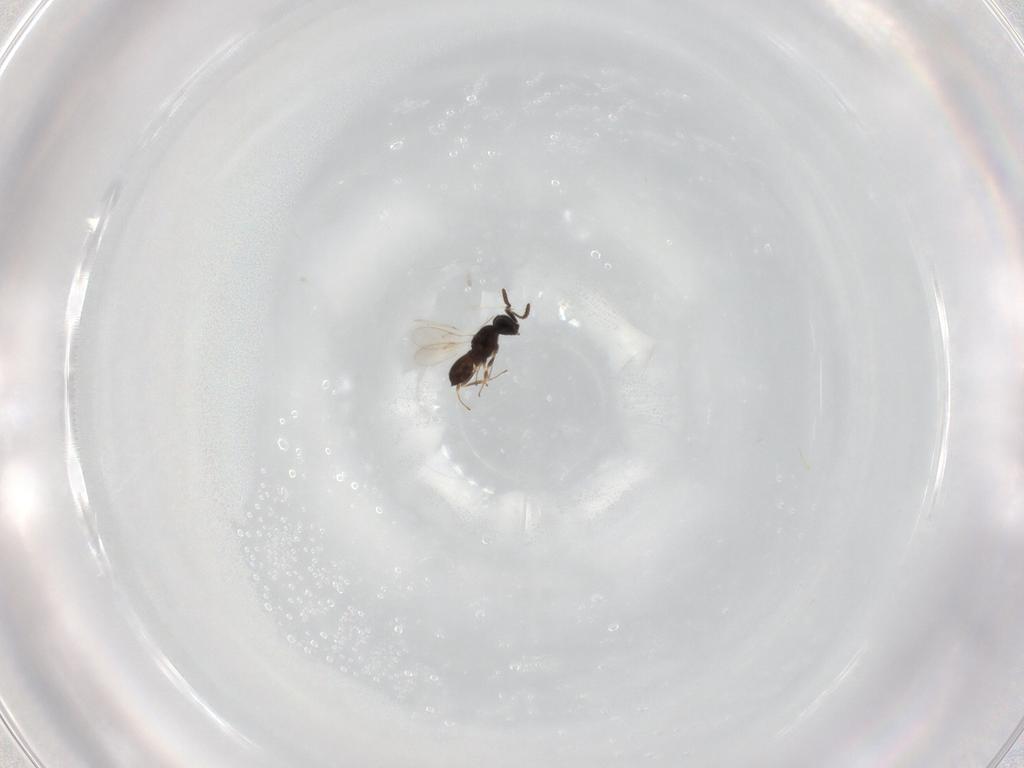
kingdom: Animalia
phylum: Arthropoda
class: Insecta
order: Hymenoptera
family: Scelionidae
